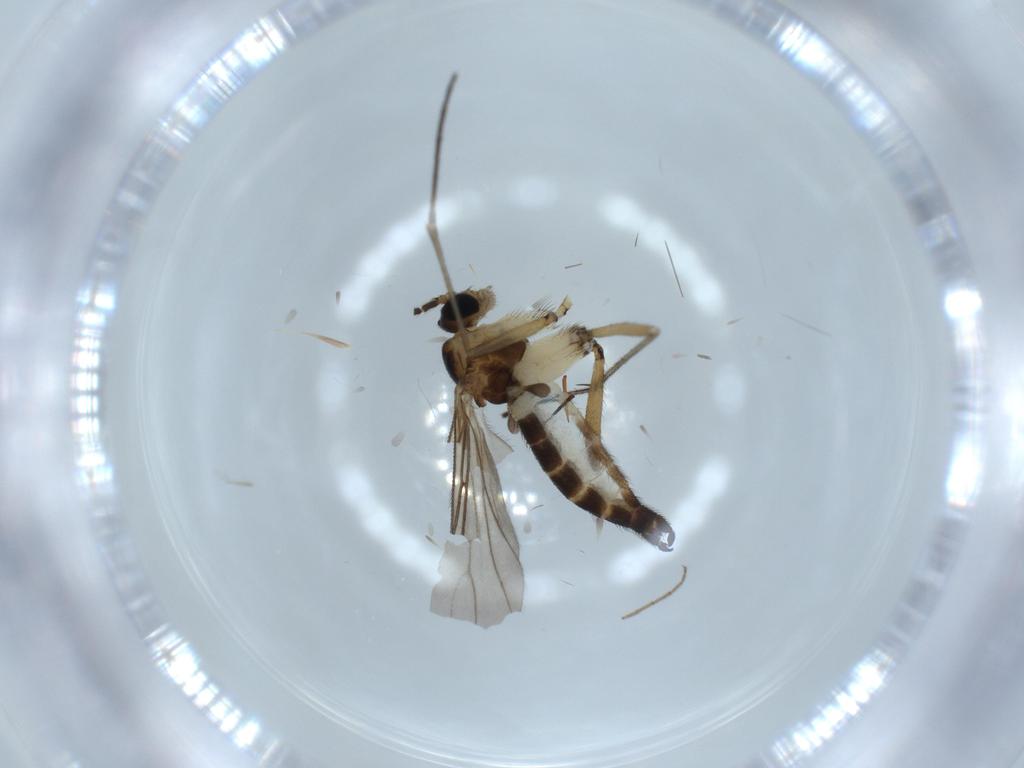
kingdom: Animalia
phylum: Arthropoda
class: Insecta
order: Diptera
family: Sciaridae
